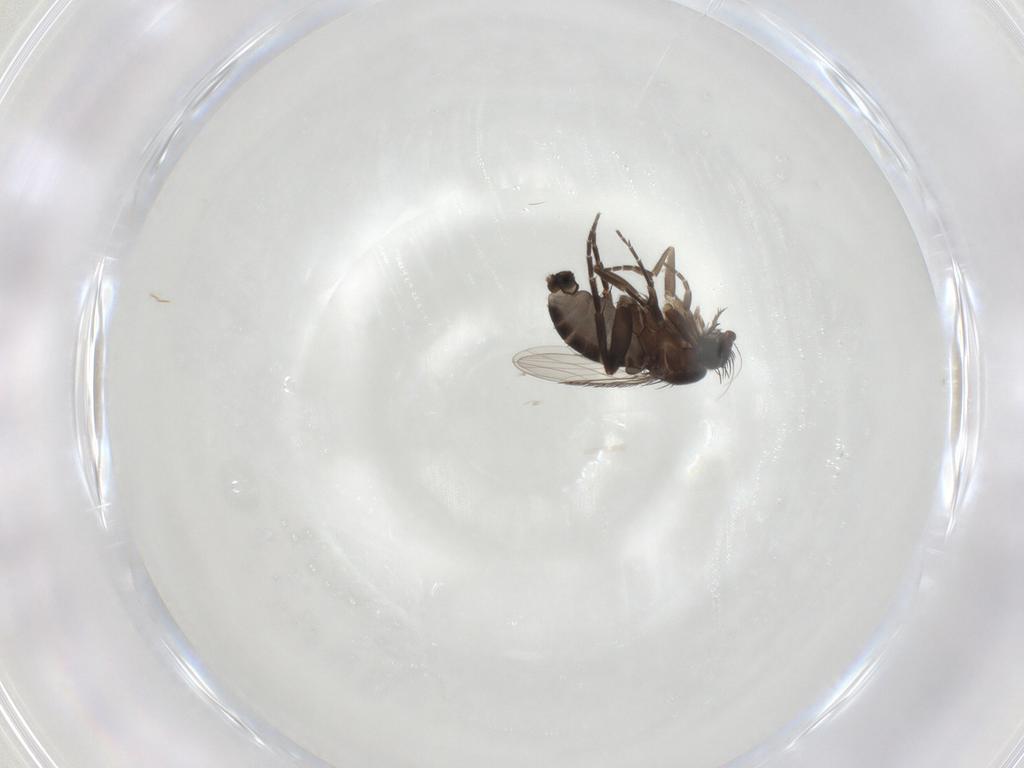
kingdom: Animalia
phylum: Arthropoda
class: Insecta
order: Diptera
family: Phoridae
